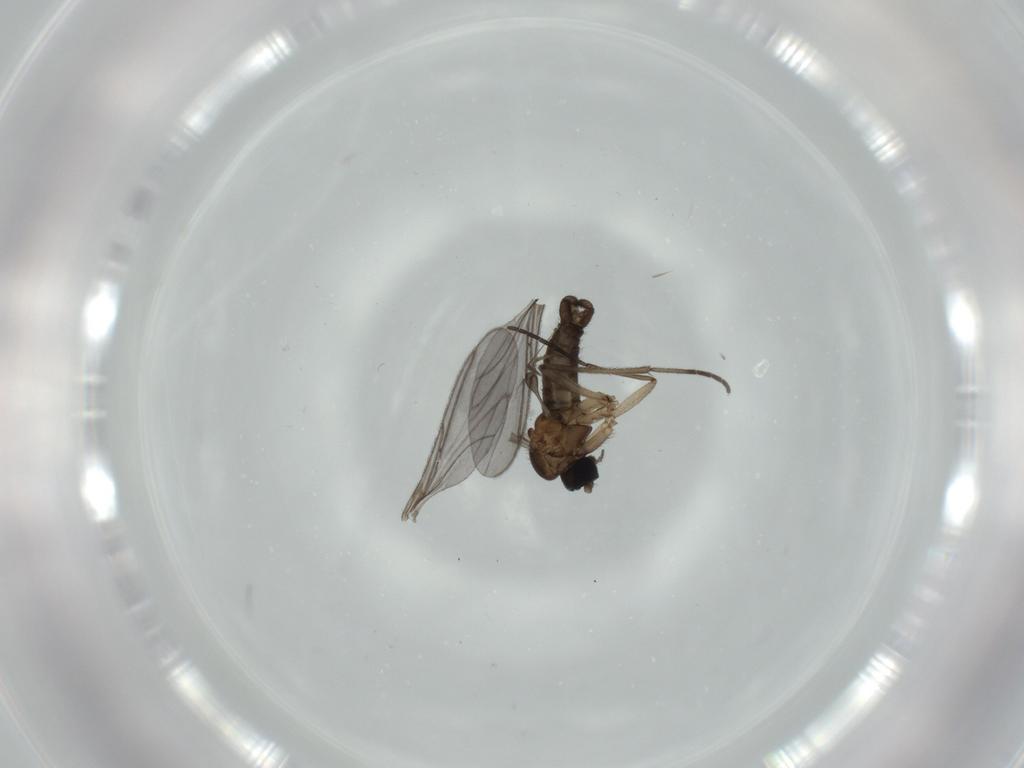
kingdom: Animalia
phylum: Arthropoda
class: Insecta
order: Diptera
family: Sciaridae
